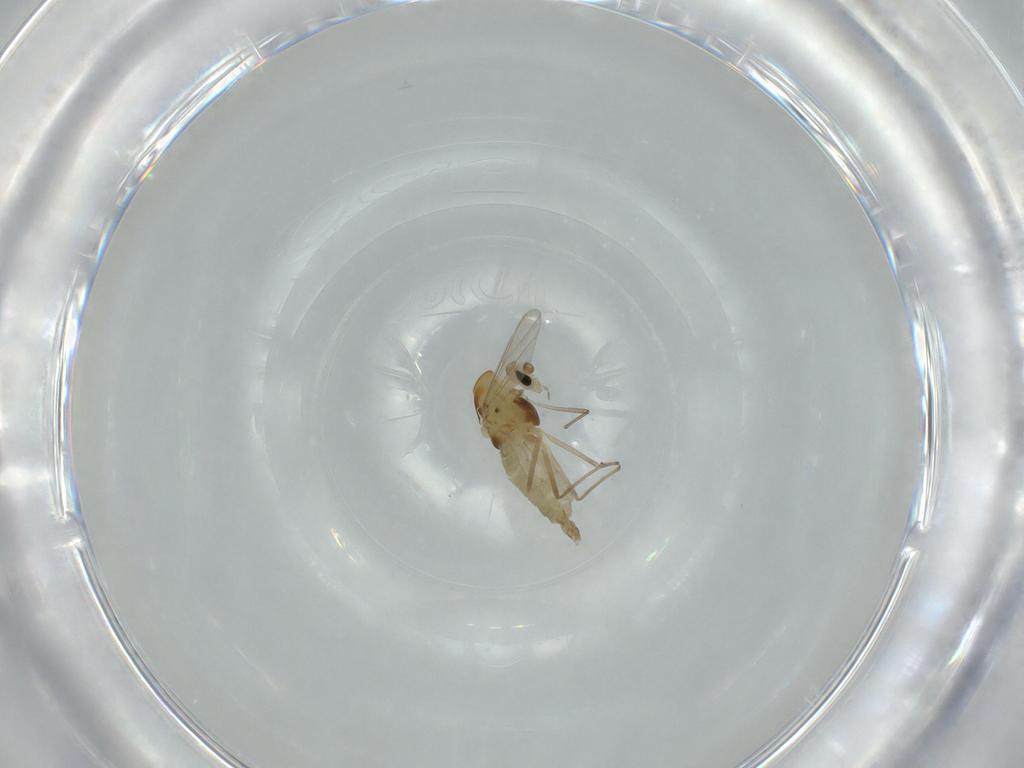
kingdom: Animalia
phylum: Arthropoda
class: Insecta
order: Diptera
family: Chironomidae
